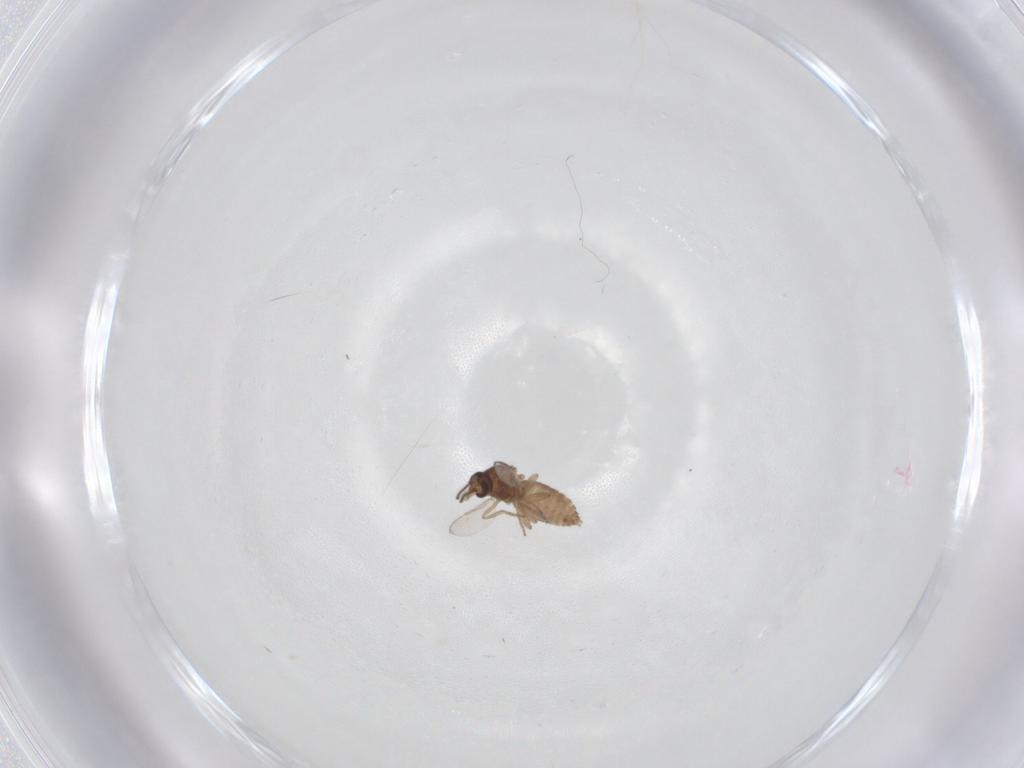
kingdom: Animalia
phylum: Arthropoda
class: Insecta
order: Diptera
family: Ceratopogonidae
